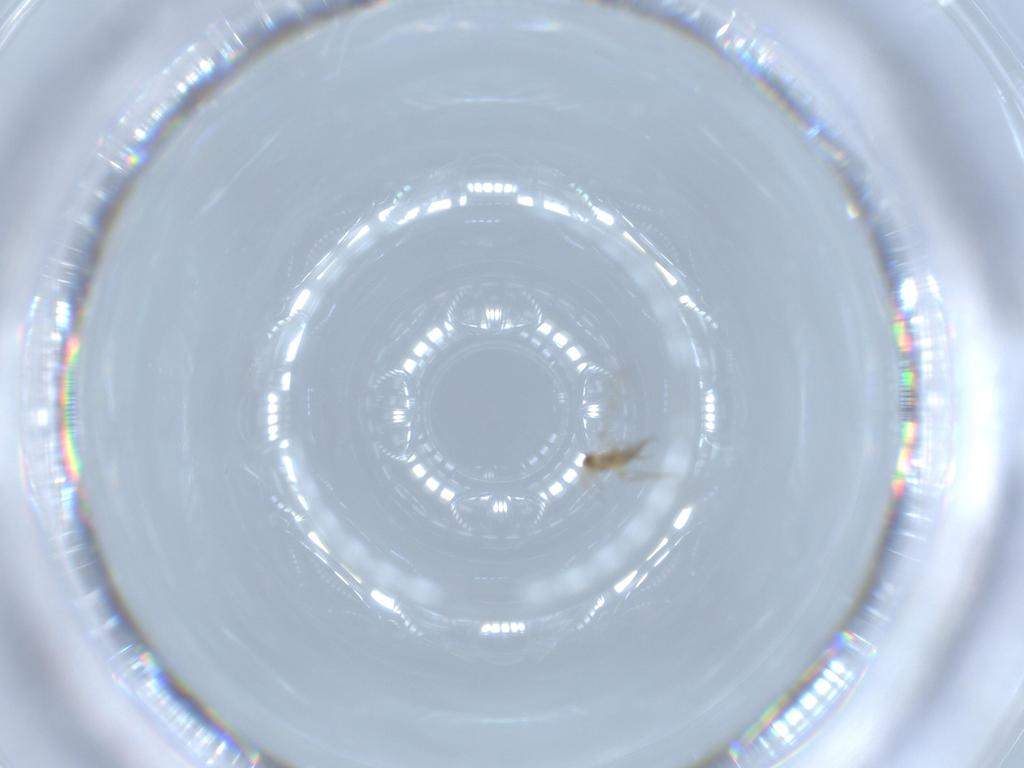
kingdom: Animalia
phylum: Arthropoda
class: Insecta
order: Hymenoptera
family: Mymaridae
